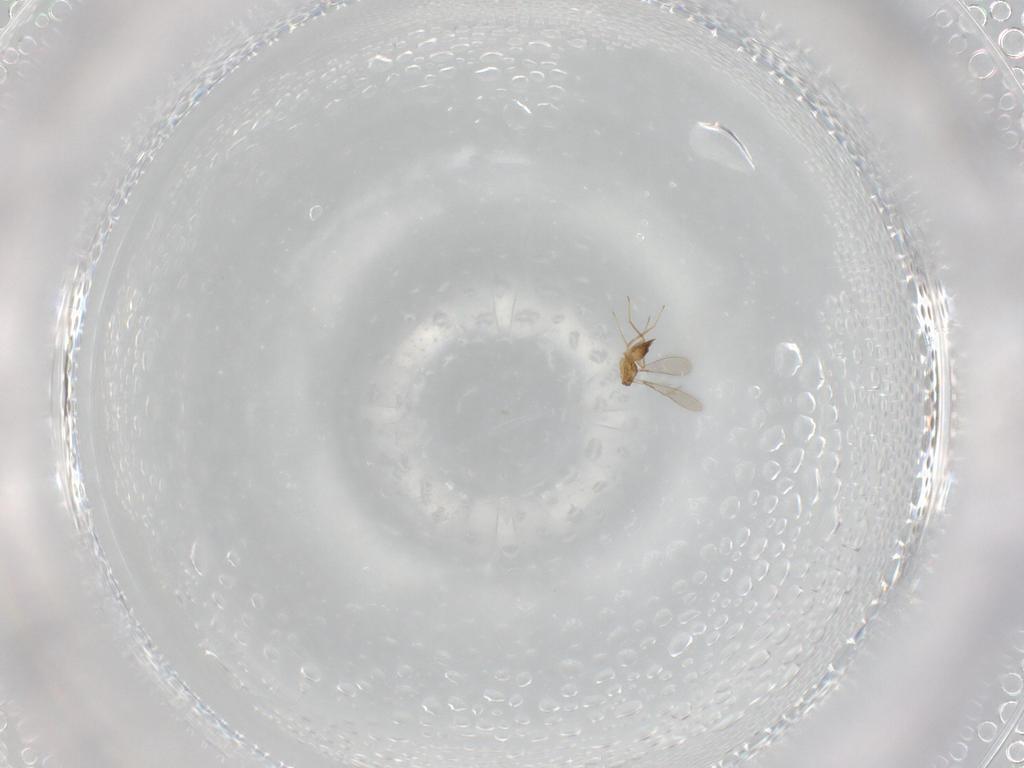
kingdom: Animalia
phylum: Arthropoda
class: Insecta
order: Hymenoptera
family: Mymaridae
